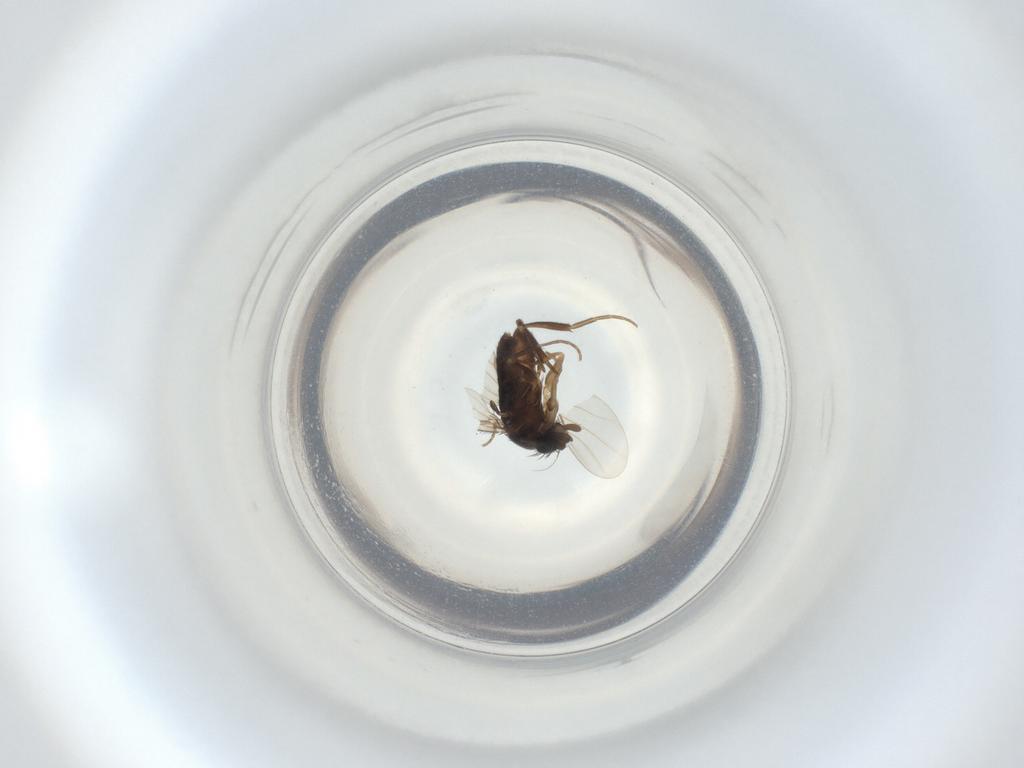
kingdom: Animalia
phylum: Arthropoda
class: Insecta
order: Diptera
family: Phoridae
